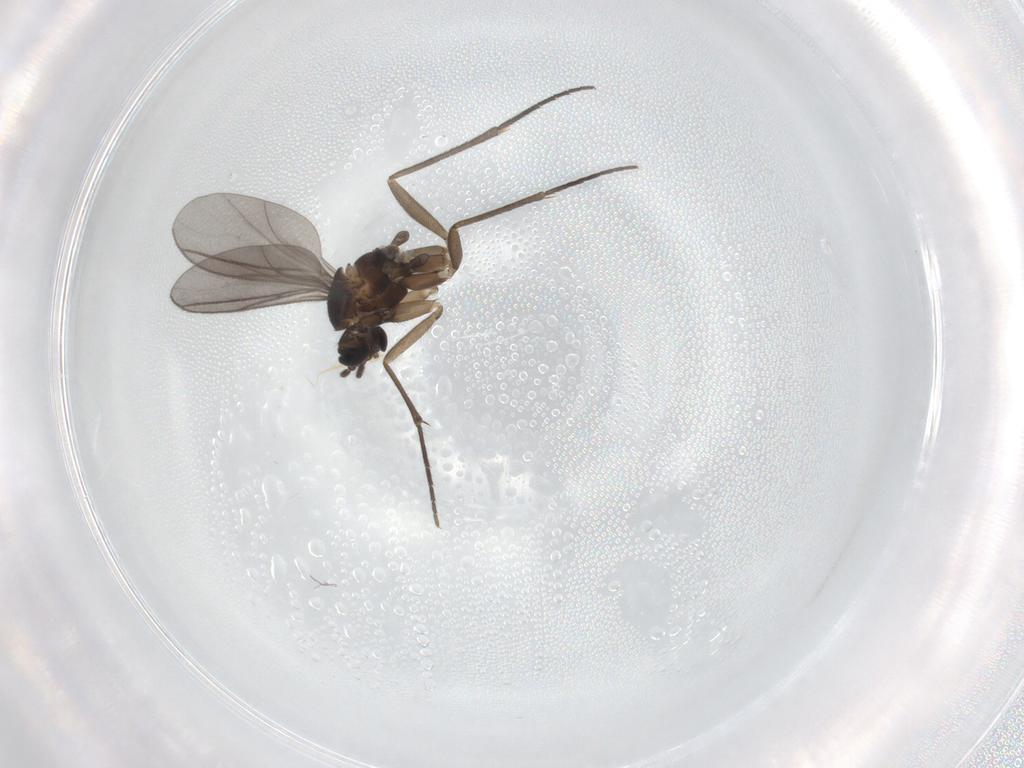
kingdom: Animalia
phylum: Arthropoda
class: Insecta
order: Diptera
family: Sciaridae
